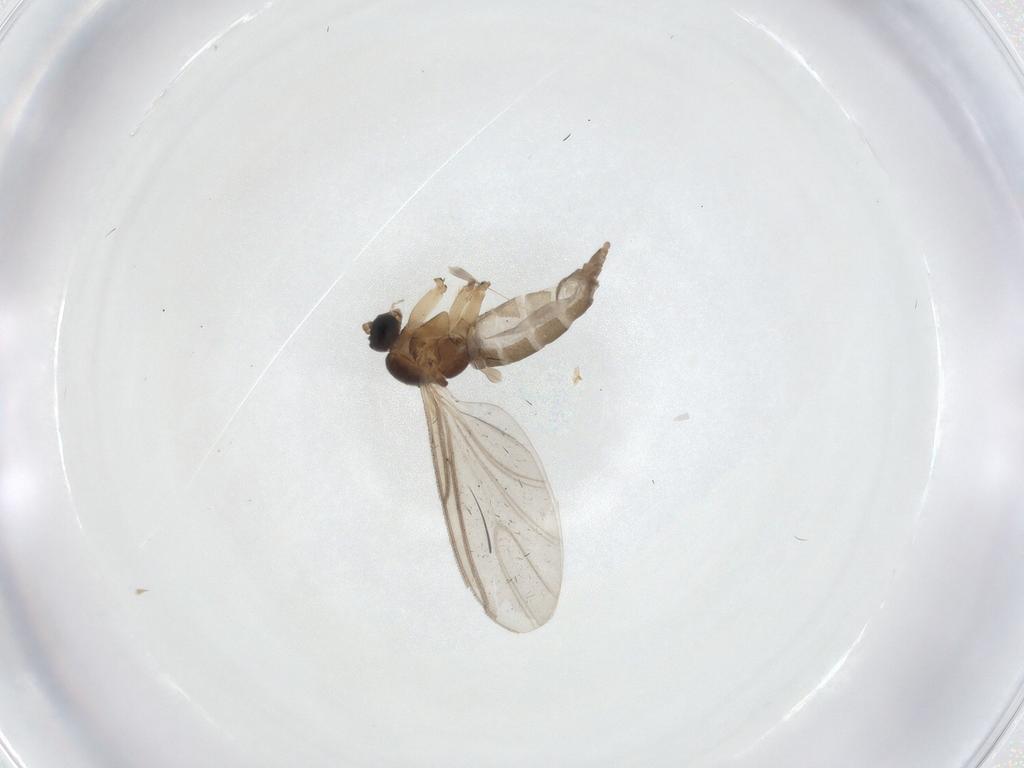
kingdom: Animalia
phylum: Arthropoda
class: Insecta
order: Diptera
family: Sciaridae
